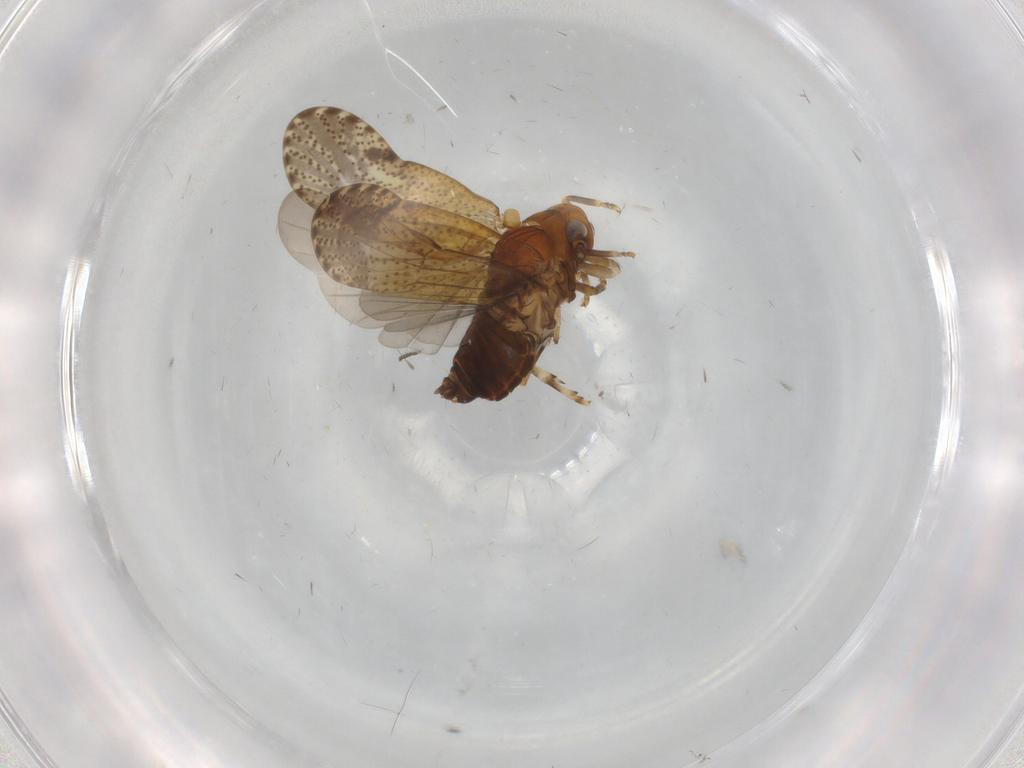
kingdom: Animalia
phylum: Arthropoda
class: Insecta
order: Hemiptera
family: Delphacidae
